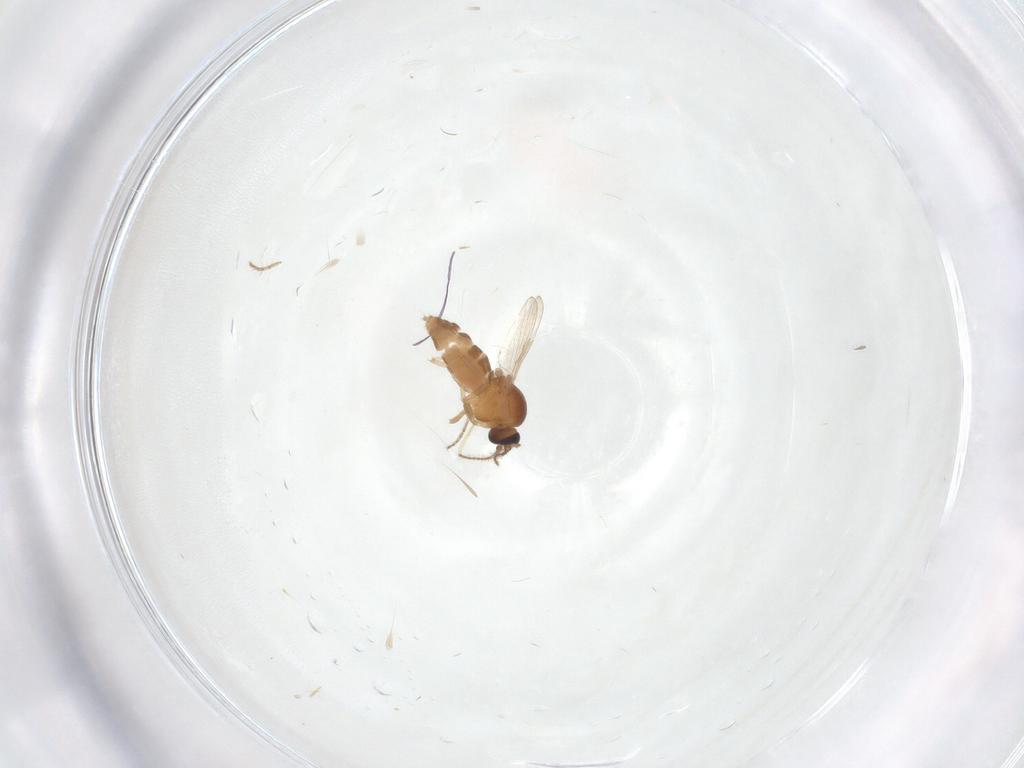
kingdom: Animalia
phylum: Arthropoda
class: Insecta
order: Diptera
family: Ceratopogonidae
